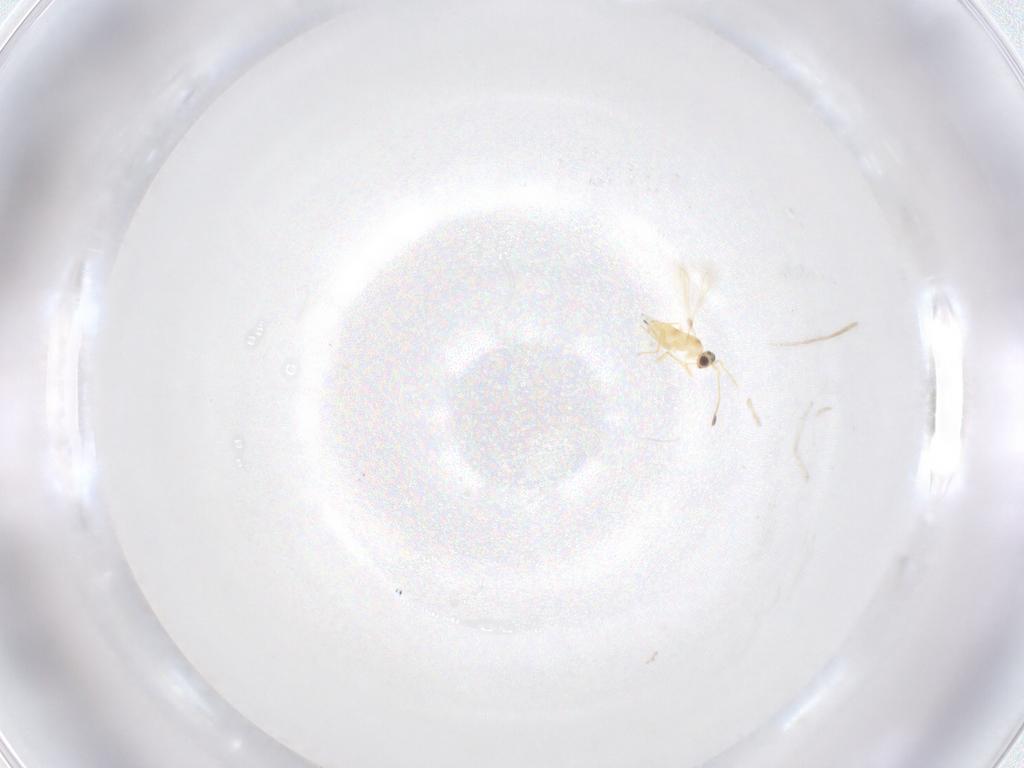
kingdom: Animalia
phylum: Arthropoda
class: Insecta
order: Hymenoptera
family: Mymaridae
